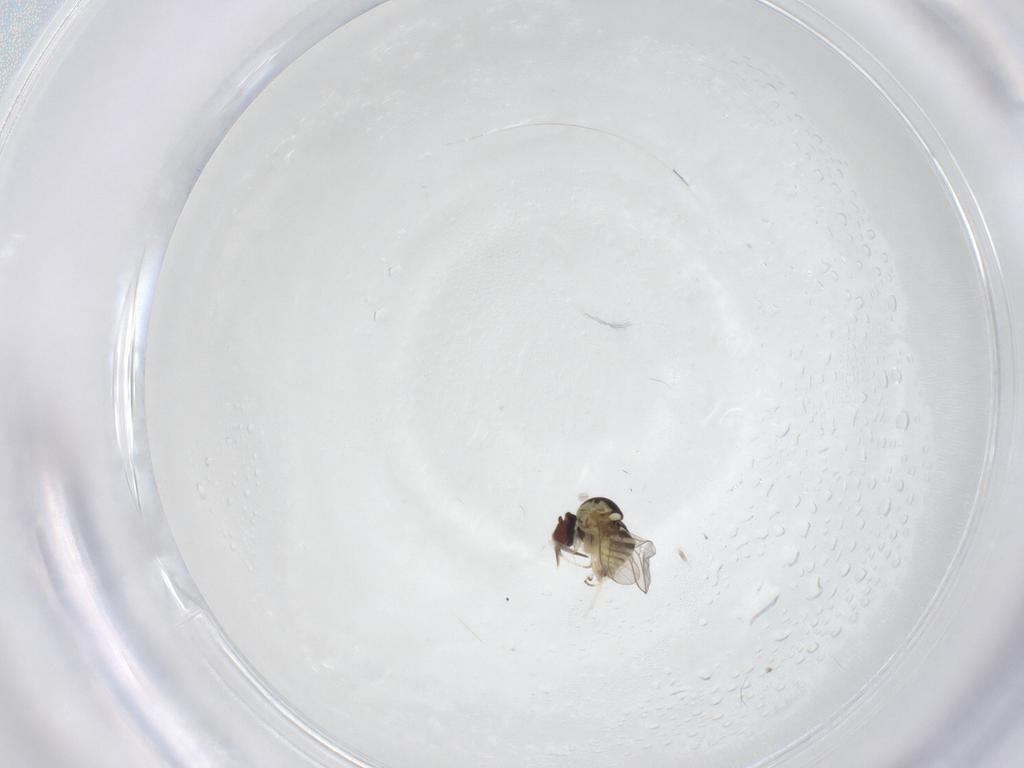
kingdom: Animalia
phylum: Arthropoda
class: Insecta
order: Diptera
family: Mythicomyiidae
